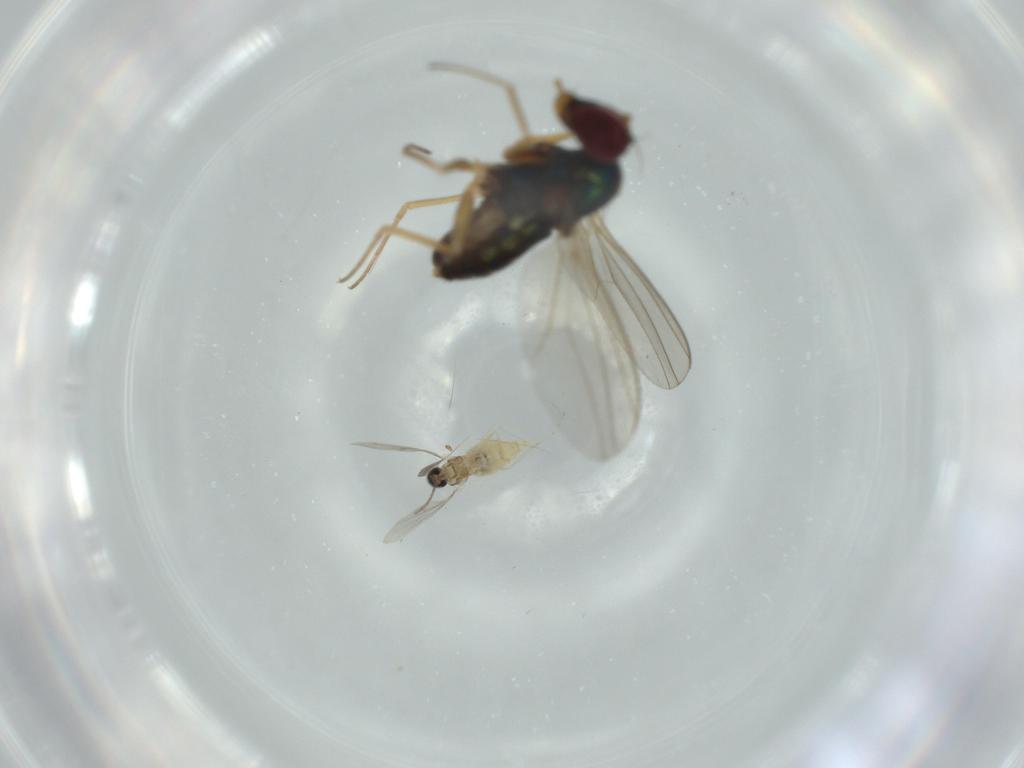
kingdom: Animalia
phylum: Arthropoda
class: Insecta
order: Diptera
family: Cecidomyiidae
